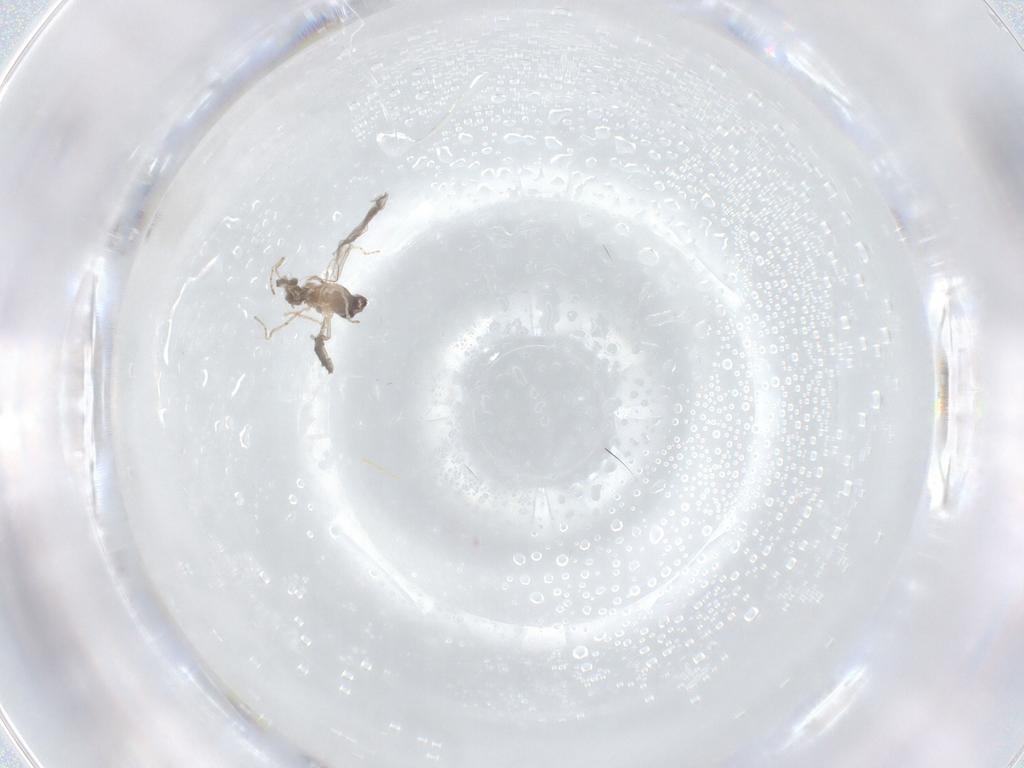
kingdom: Animalia
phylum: Arthropoda
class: Insecta
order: Diptera
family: Cecidomyiidae
